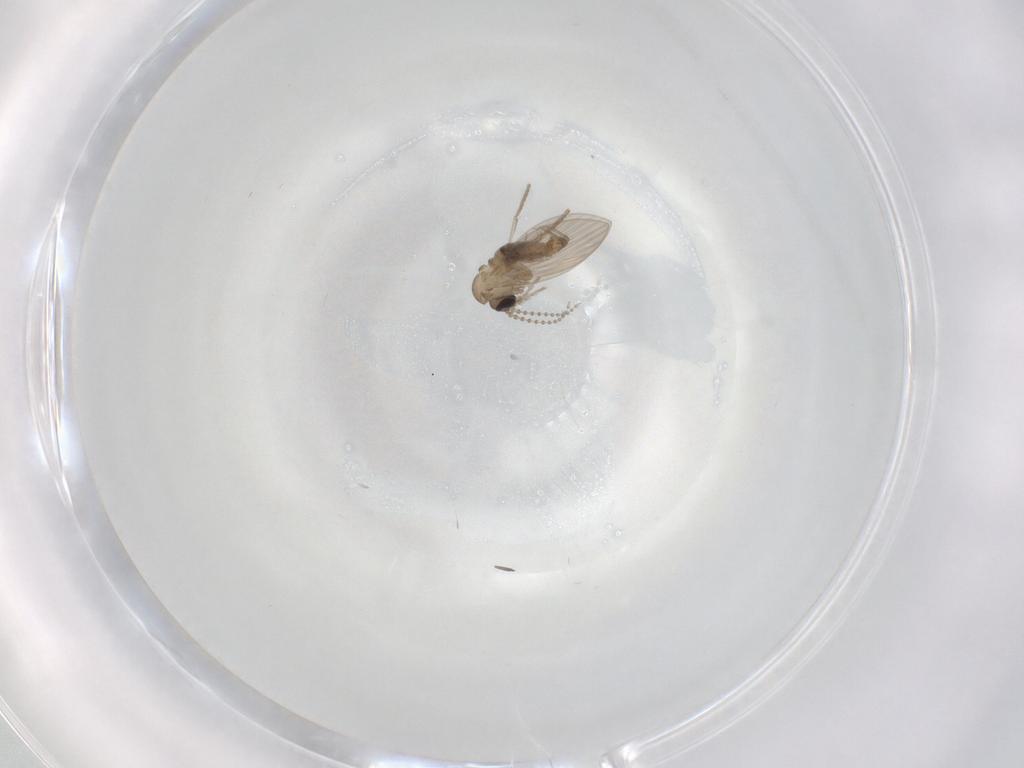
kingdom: Animalia
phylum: Arthropoda
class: Insecta
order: Diptera
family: Psychodidae
